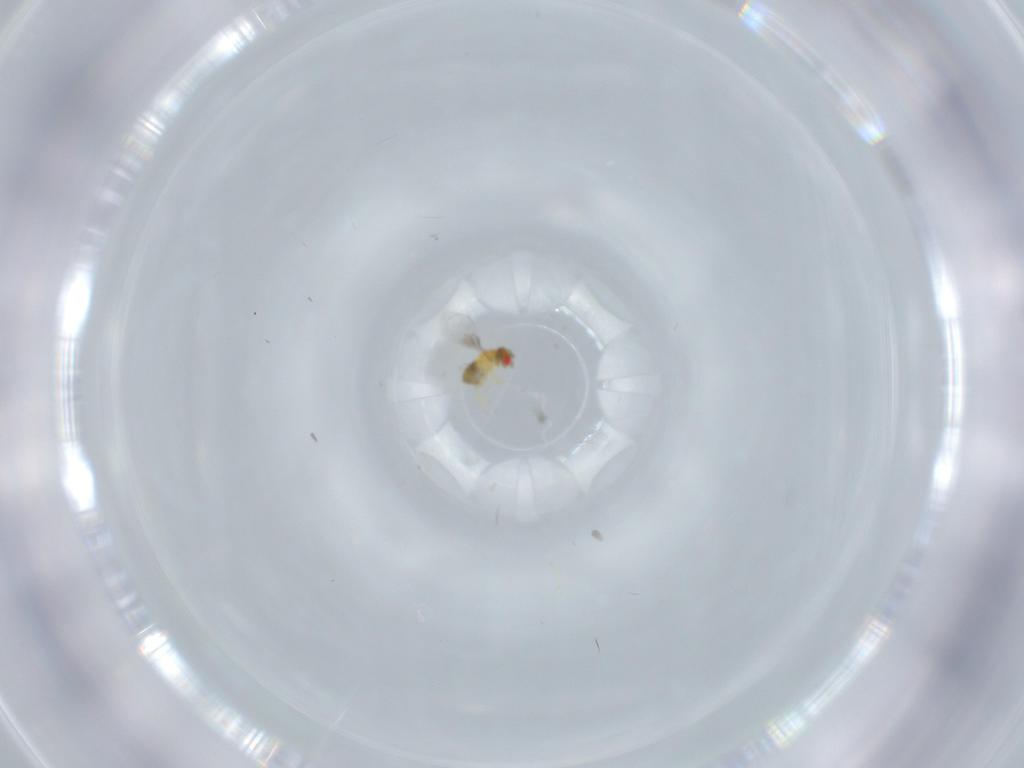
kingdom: Animalia
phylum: Arthropoda
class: Insecta
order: Hymenoptera
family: Trichogrammatidae
